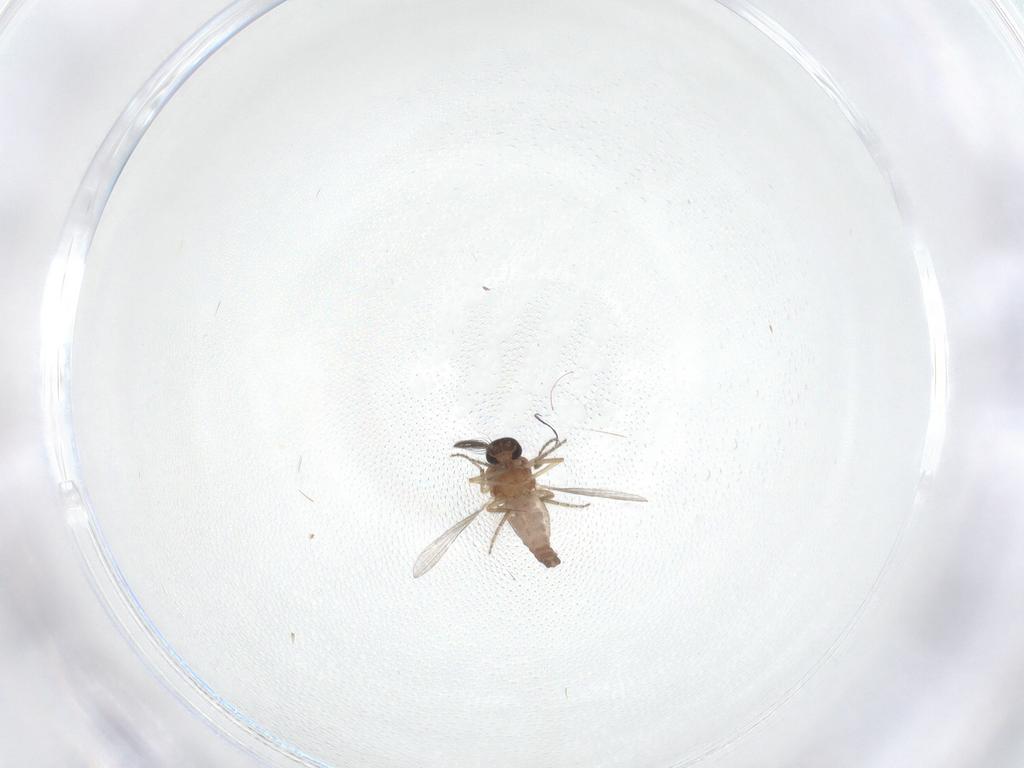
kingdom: Animalia
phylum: Arthropoda
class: Insecta
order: Diptera
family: Ceratopogonidae
